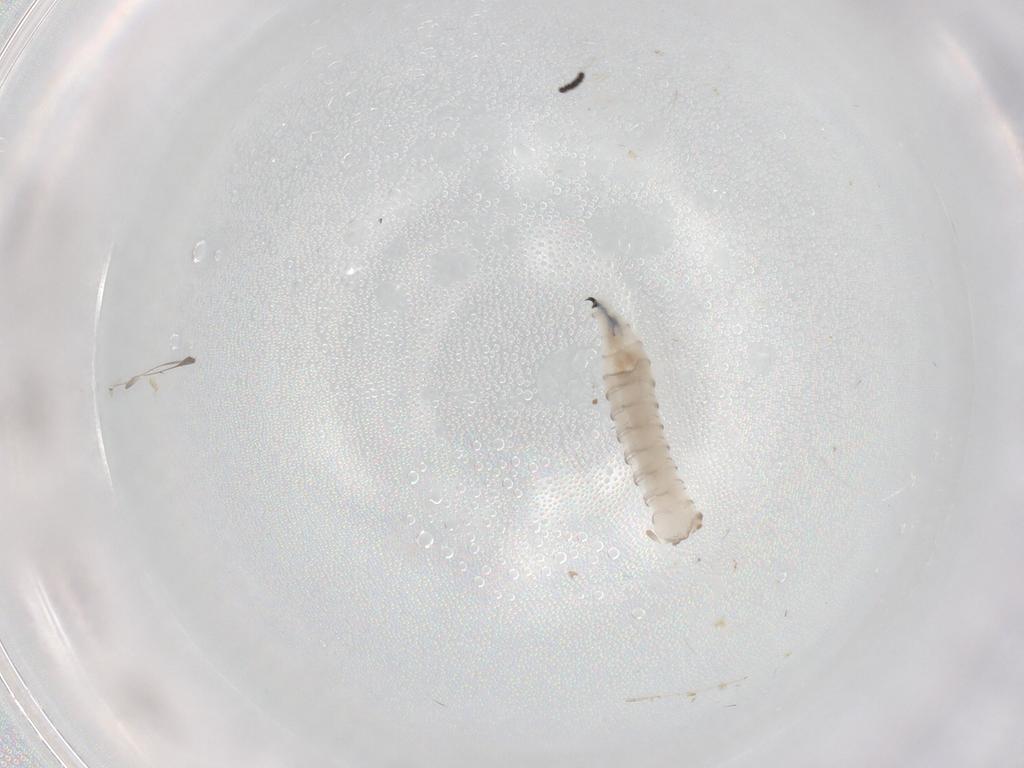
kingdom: Animalia
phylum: Arthropoda
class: Insecta
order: Diptera
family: Sarcophagidae
